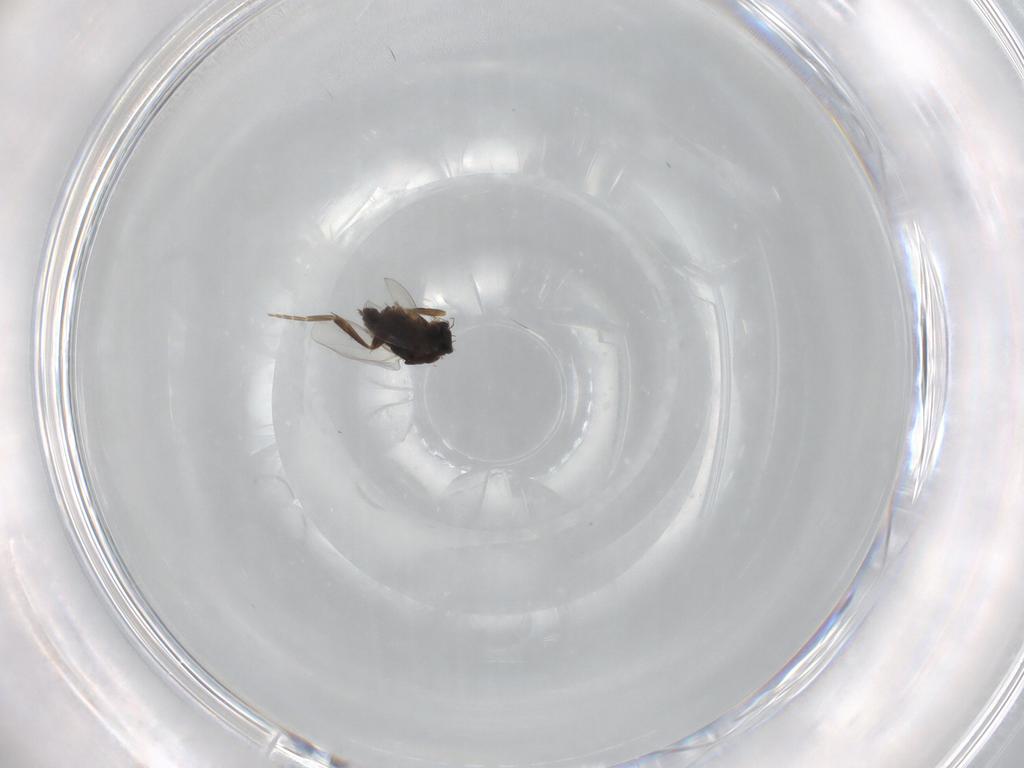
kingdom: Animalia
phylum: Arthropoda
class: Insecta
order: Diptera
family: Phoridae
